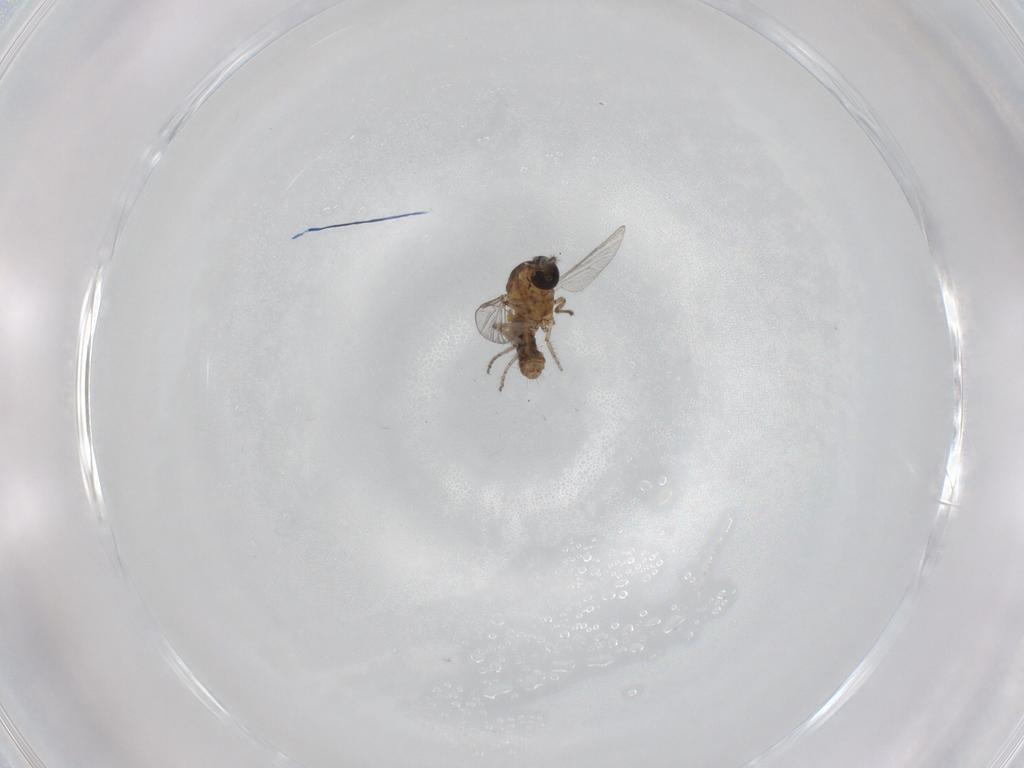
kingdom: Animalia
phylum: Arthropoda
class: Insecta
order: Diptera
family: Ceratopogonidae
